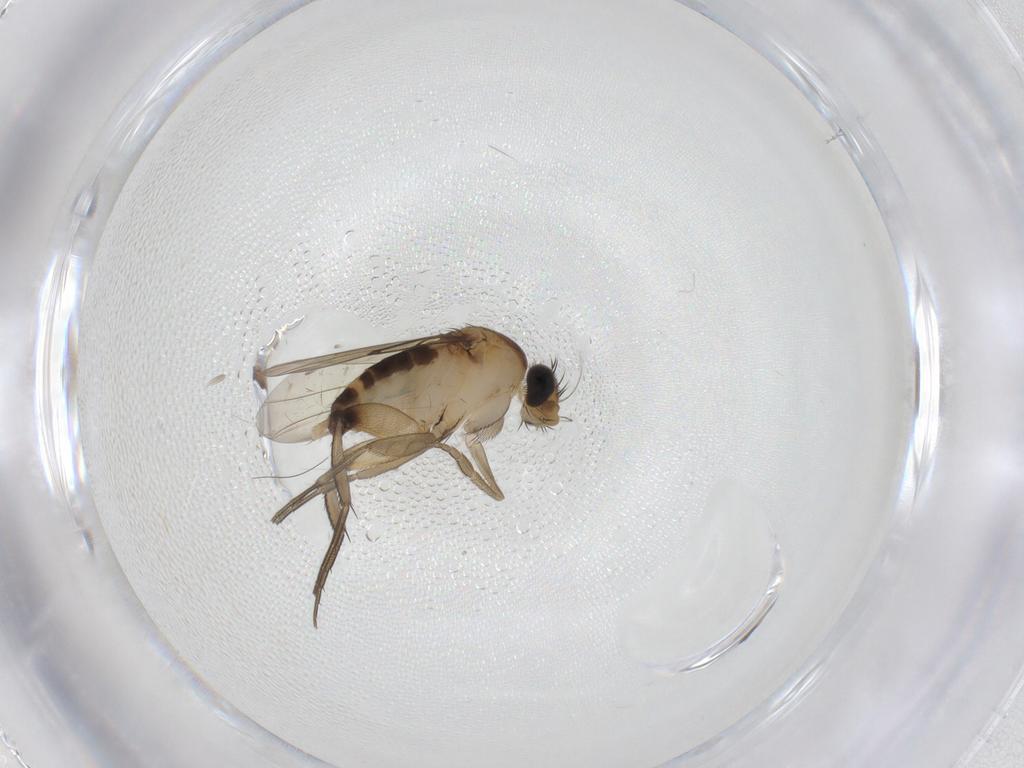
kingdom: Animalia
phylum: Arthropoda
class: Insecta
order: Diptera
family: Phoridae
